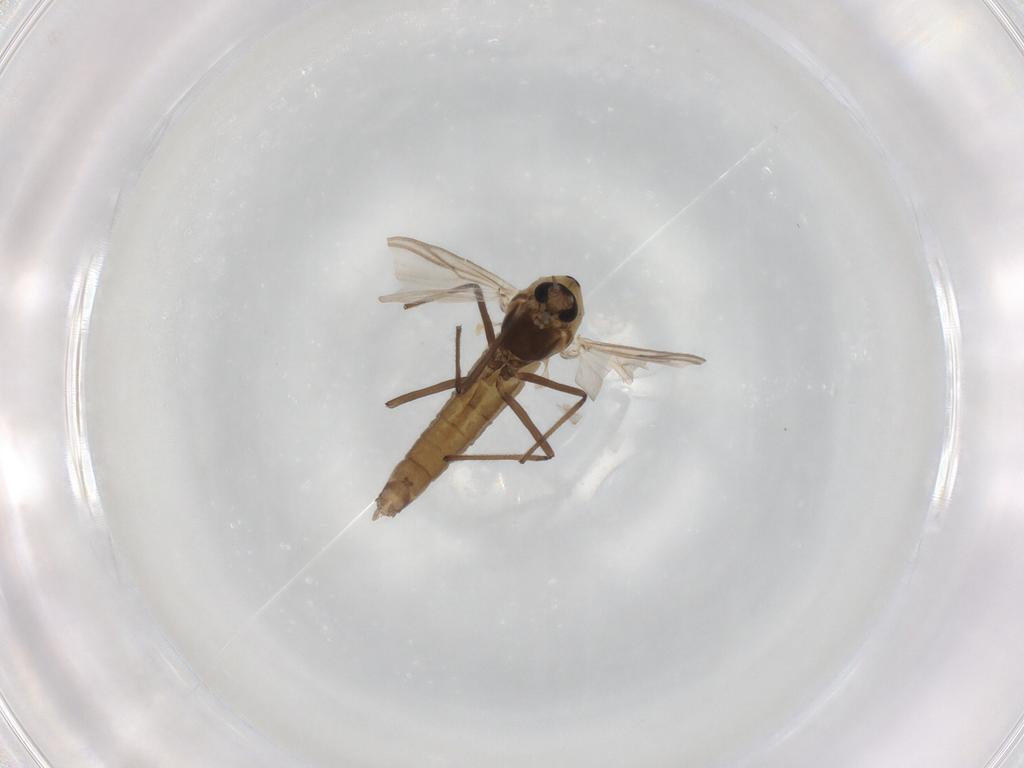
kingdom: Animalia
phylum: Arthropoda
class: Insecta
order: Diptera
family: Chironomidae
